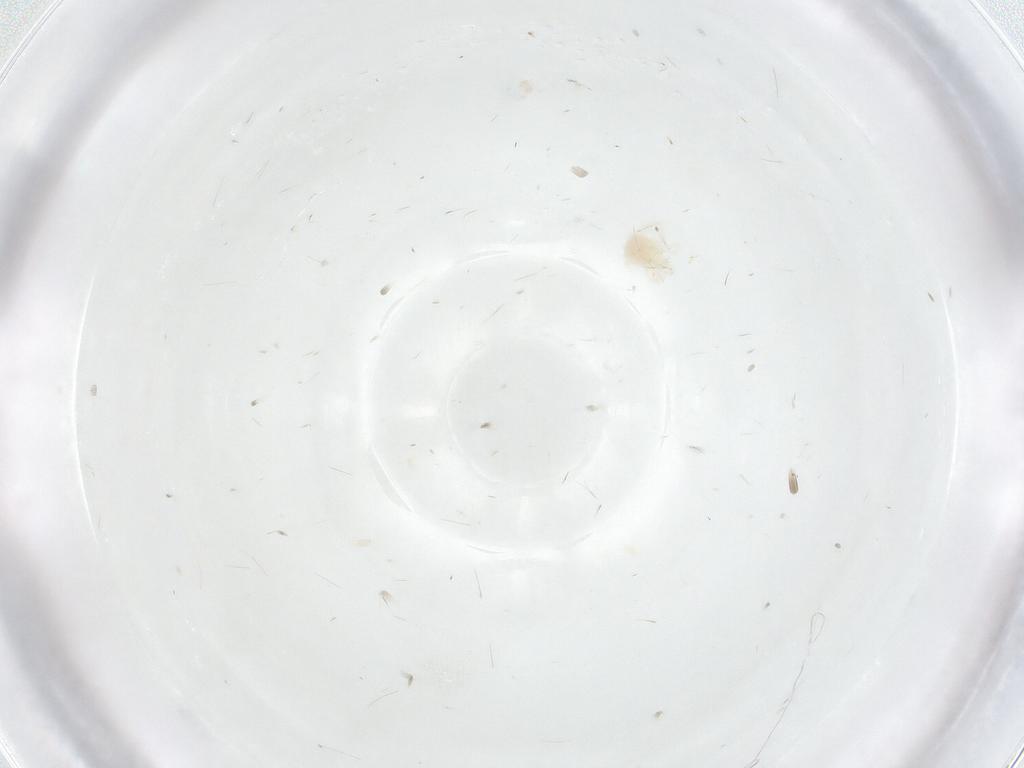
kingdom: Animalia
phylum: Arthropoda
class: Arachnida
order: Trombidiformes
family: Anystidae
